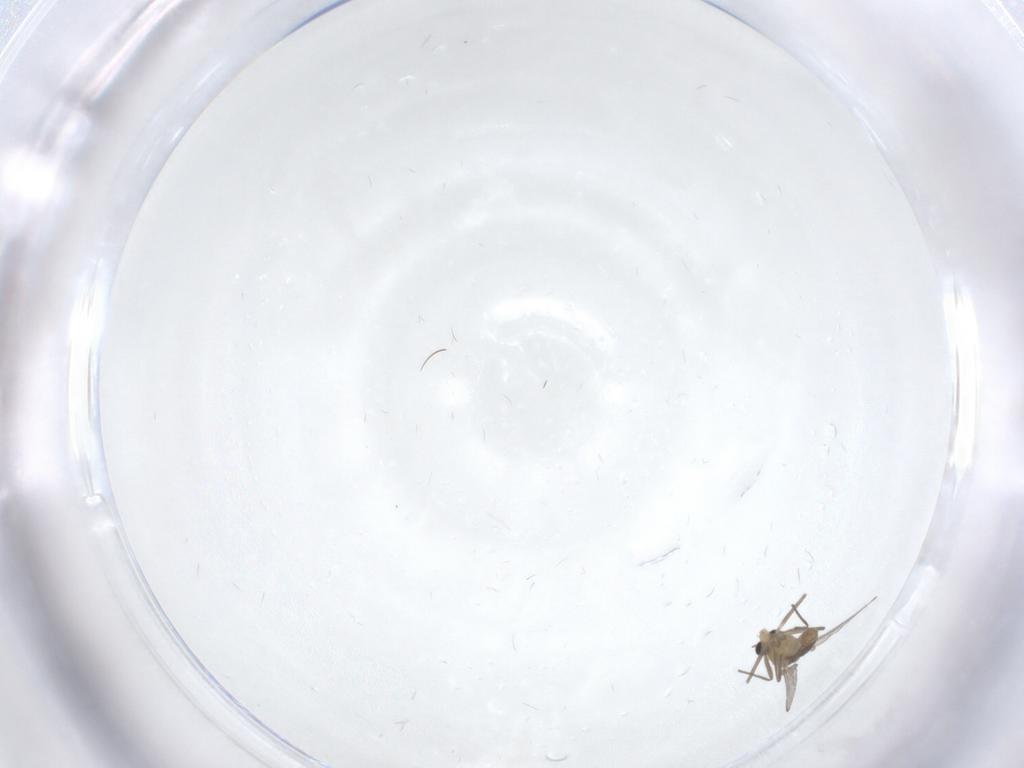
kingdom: Animalia
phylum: Arthropoda
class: Insecta
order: Diptera
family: Chironomidae
